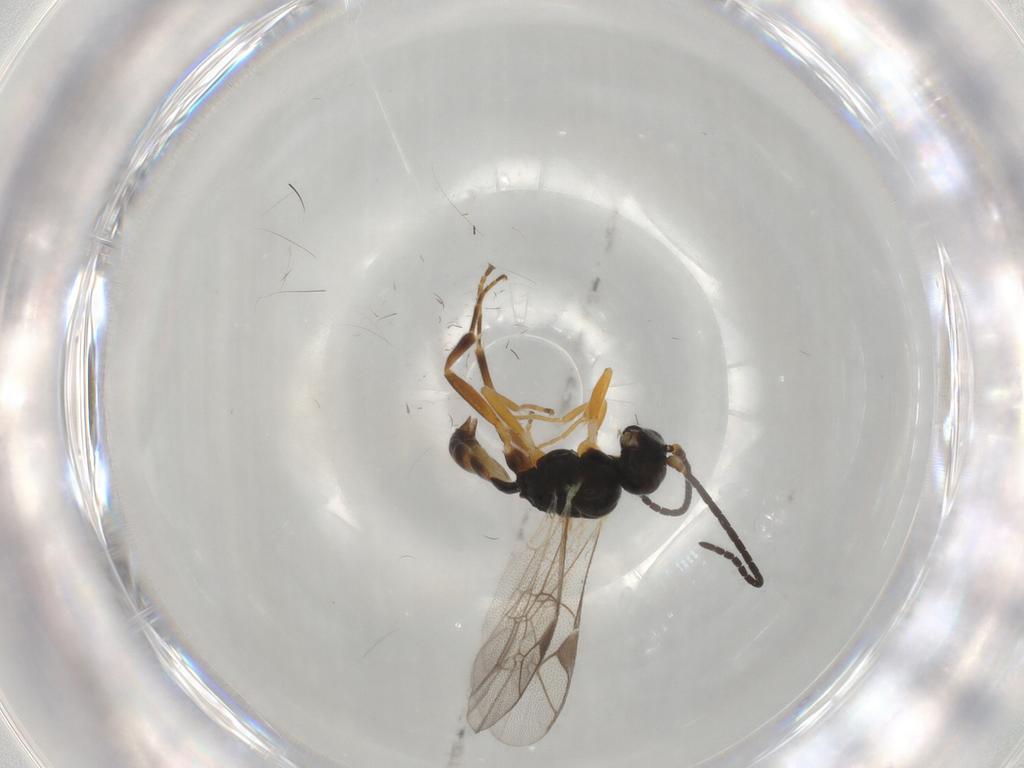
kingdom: Animalia
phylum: Arthropoda
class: Insecta
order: Hymenoptera
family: Ichneumonidae
